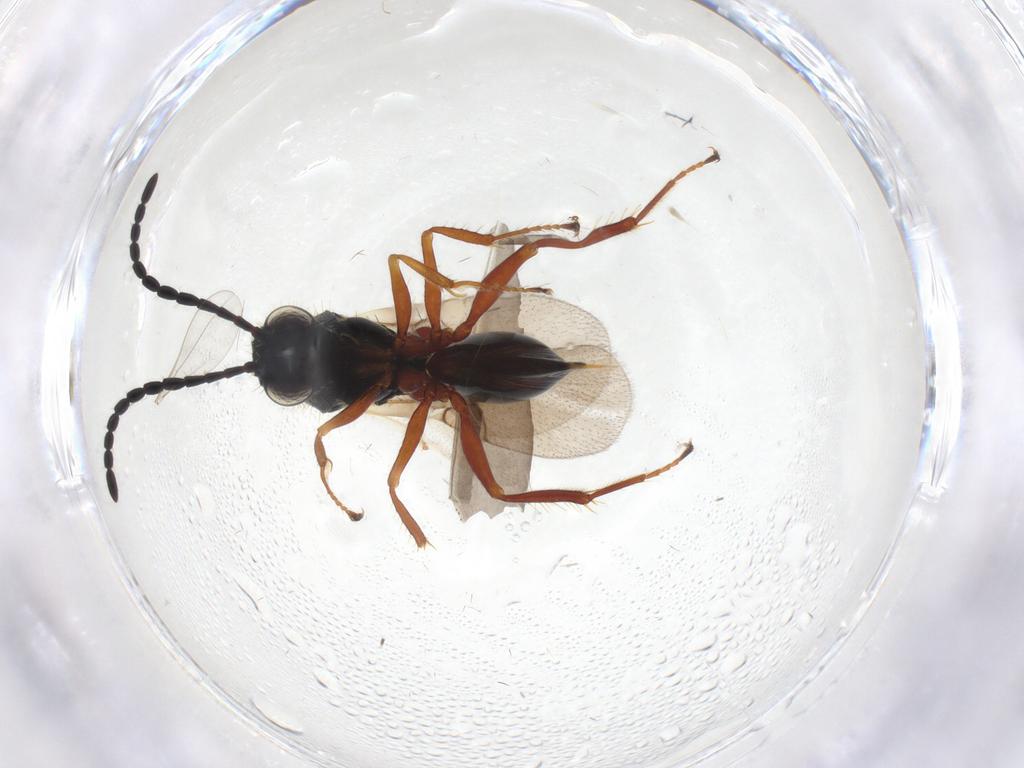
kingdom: Animalia
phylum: Arthropoda
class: Insecta
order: Hymenoptera
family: Figitidae
